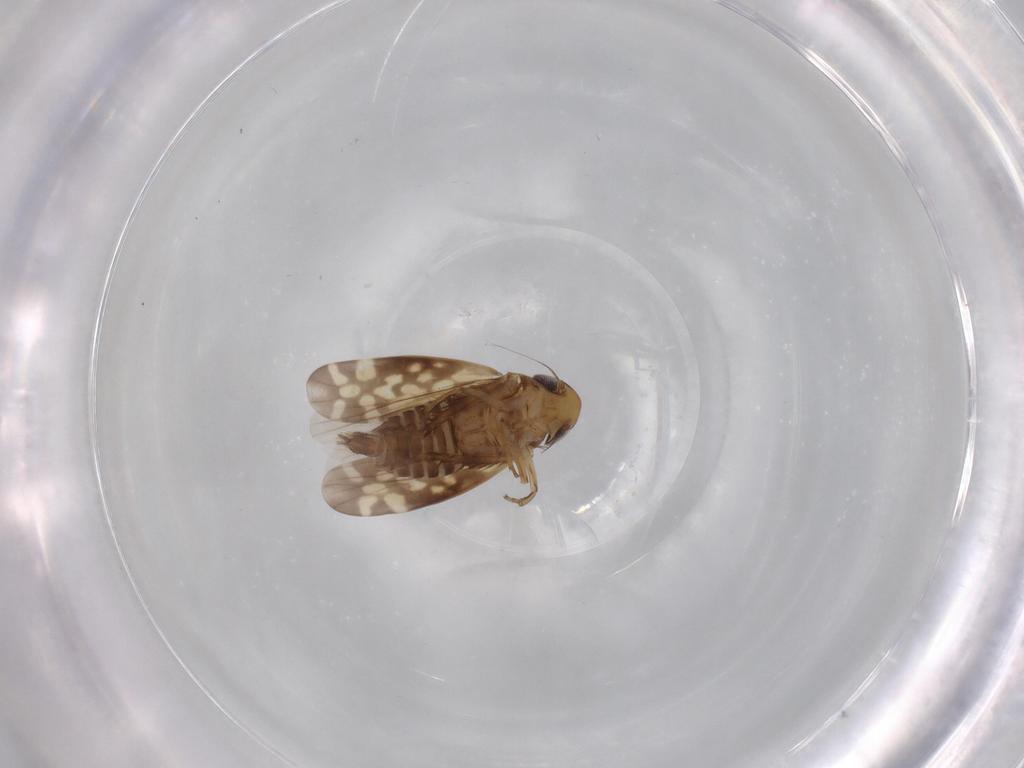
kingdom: Animalia
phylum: Arthropoda
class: Insecta
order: Hemiptera
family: Cicadellidae
